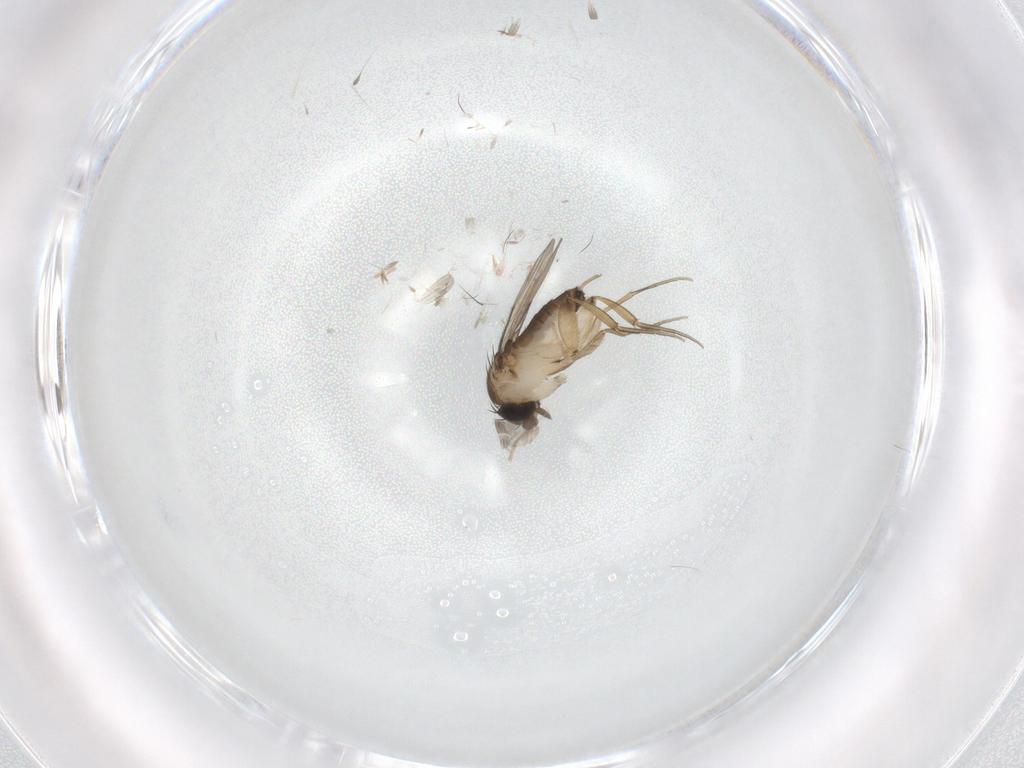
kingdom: Animalia
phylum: Arthropoda
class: Insecta
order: Diptera
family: Phoridae
